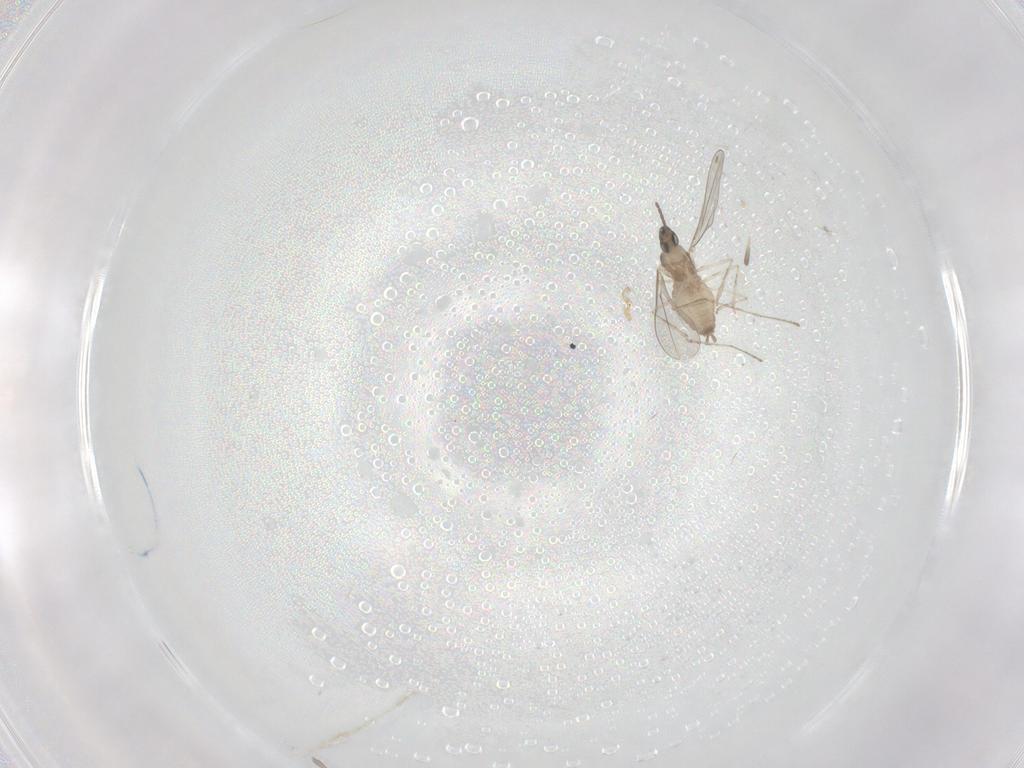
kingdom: Animalia
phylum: Arthropoda
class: Insecta
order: Diptera
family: Cecidomyiidae
